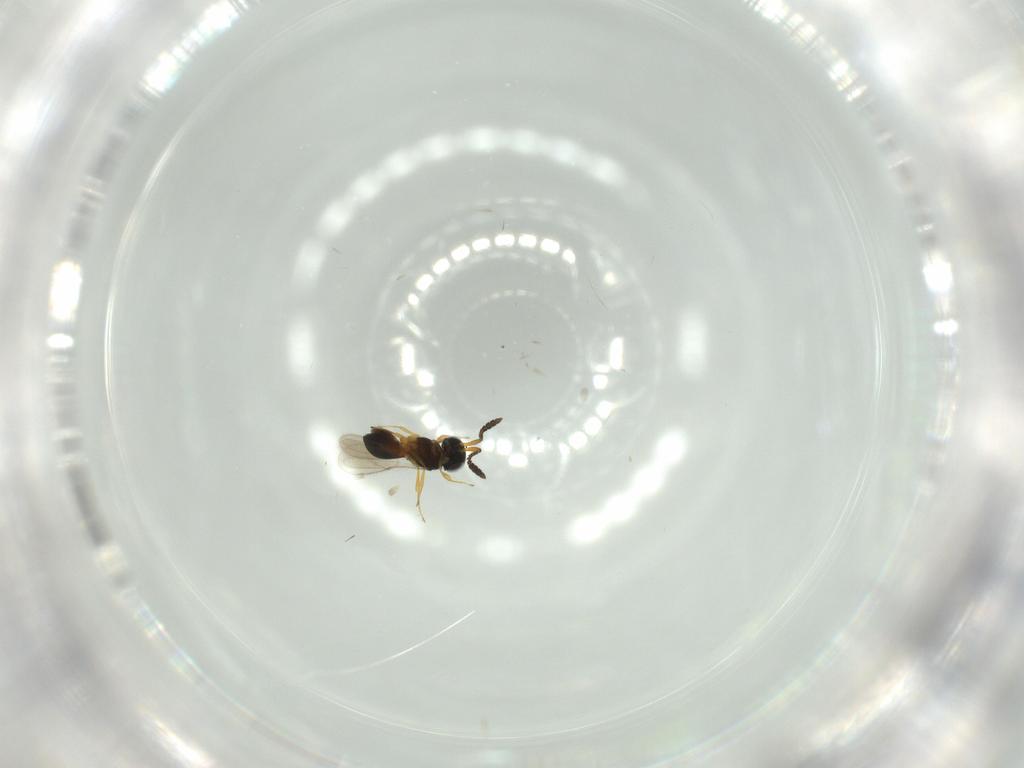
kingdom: Animalia
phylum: Arthropoda
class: Insecta
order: Hymenoptera
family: Scelionidae
